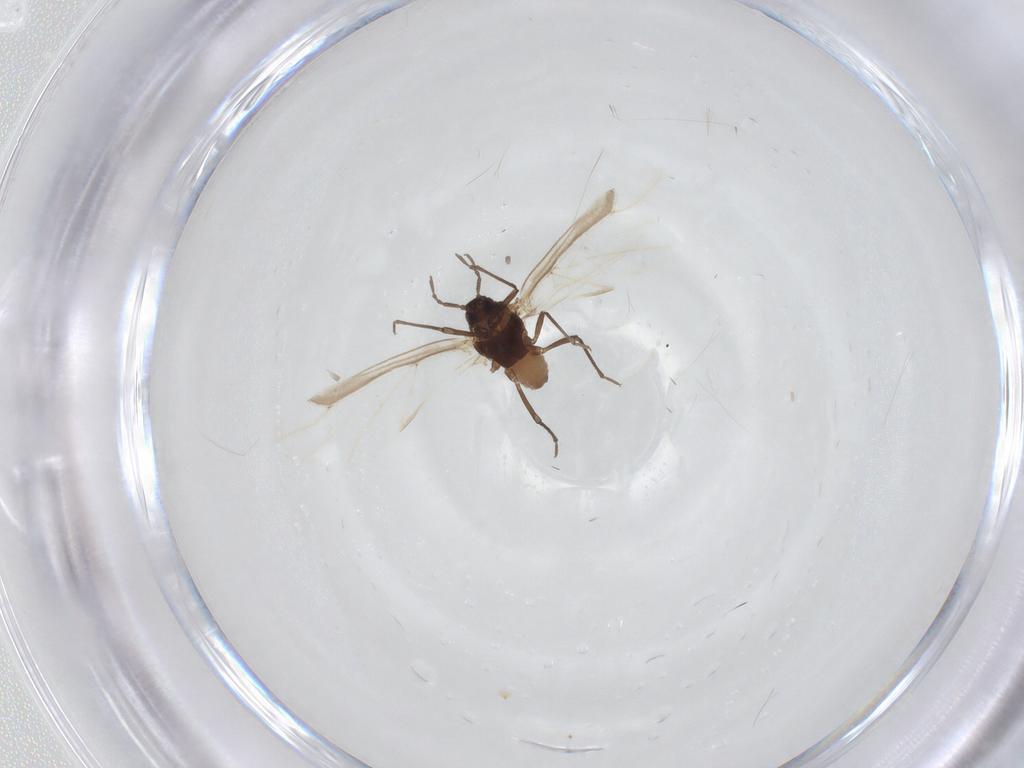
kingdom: Animalia
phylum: Arthropoda
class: Insecta
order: Hemiptera
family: Aphididae
